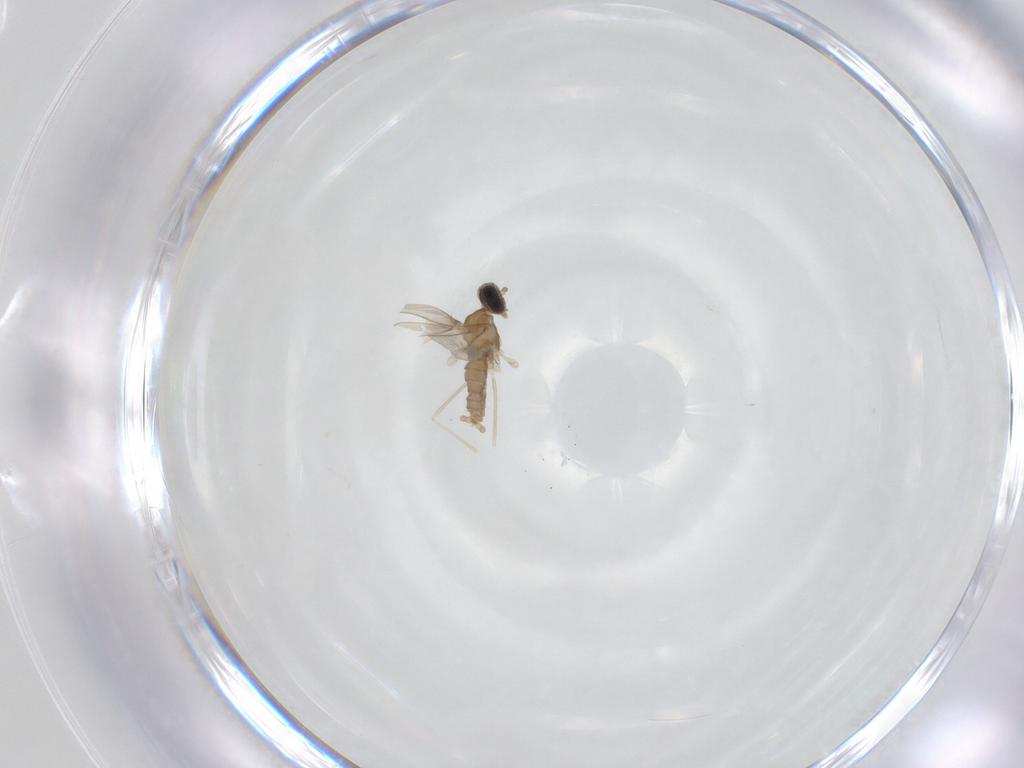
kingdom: Animalia
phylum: Arthropoda
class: Insecta
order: Diptera
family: Cecidomyiidae
